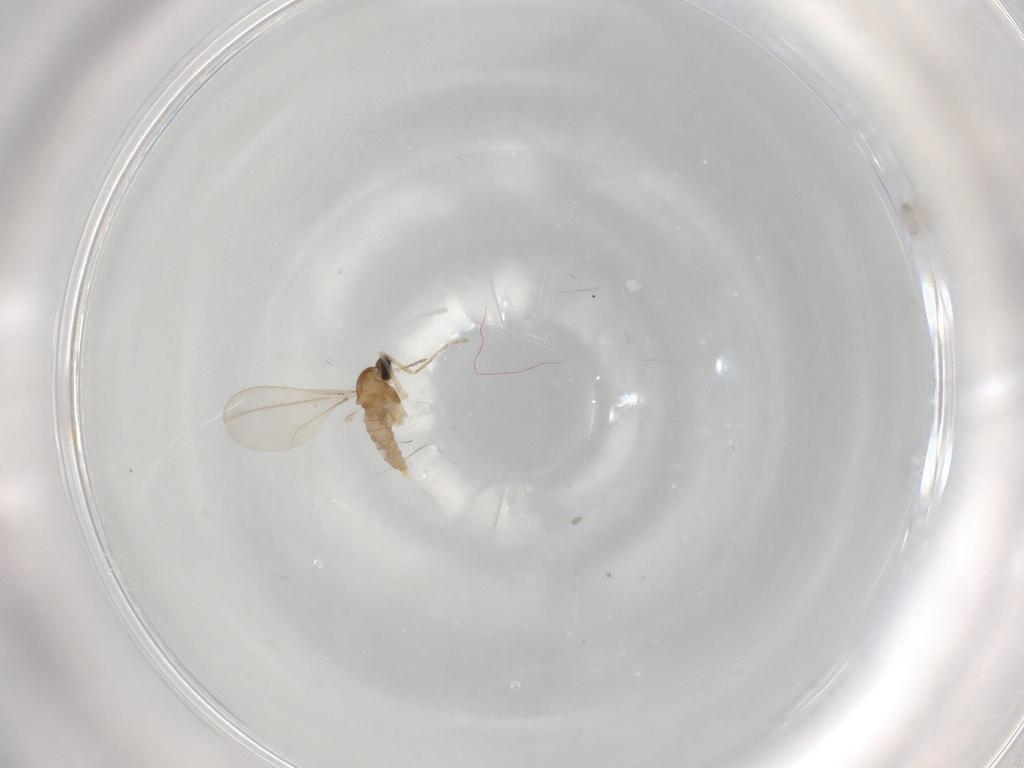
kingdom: Animalia
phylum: Arthropoda
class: Insecta
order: Diptera
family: Cecidomyiidae
